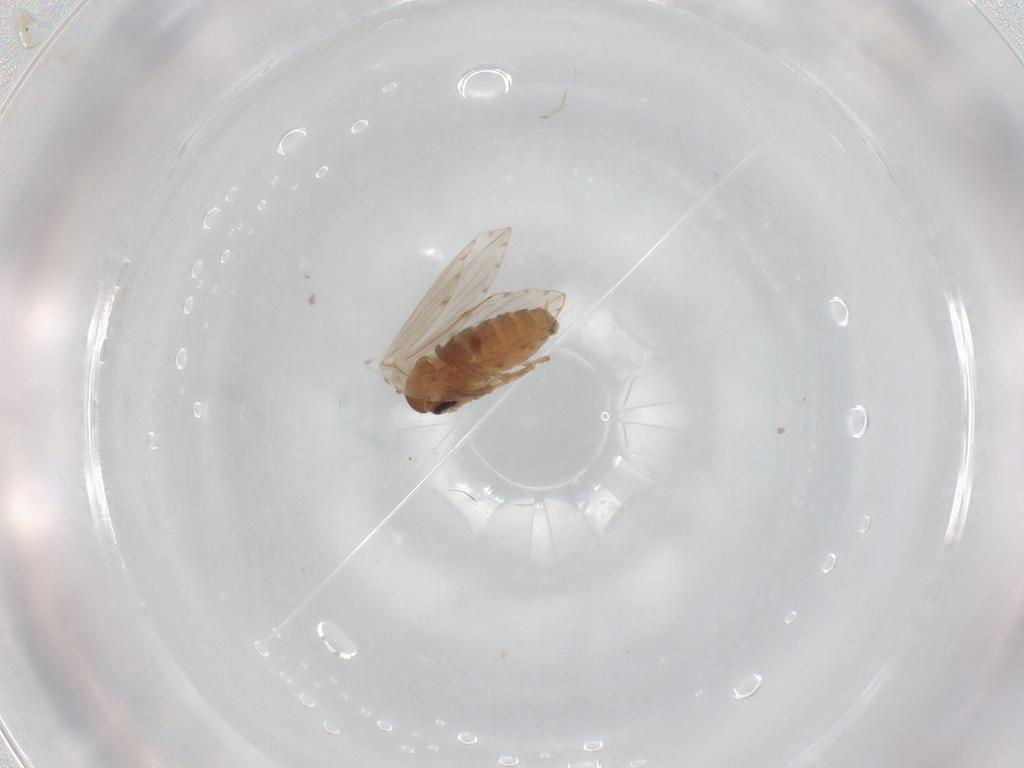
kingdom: Animalia
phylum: Arthropoda
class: Insecta
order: Diptera
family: Psychodidae
